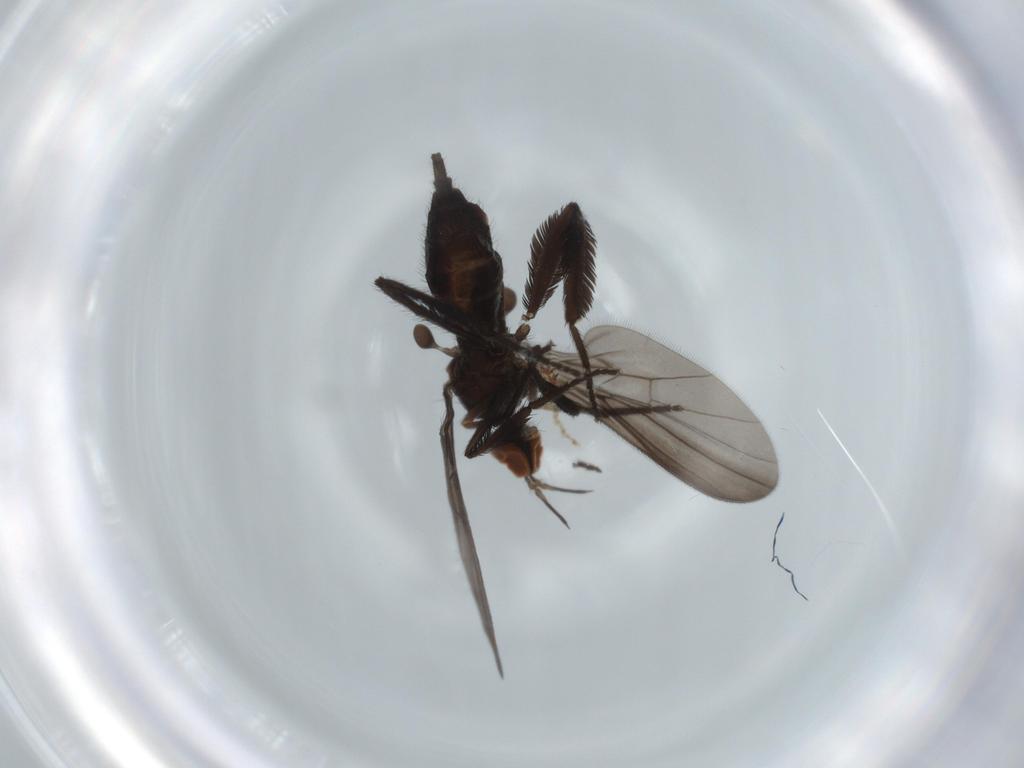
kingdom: Animalia
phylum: Arthropoda
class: Insecta
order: Diptera
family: Empididae
